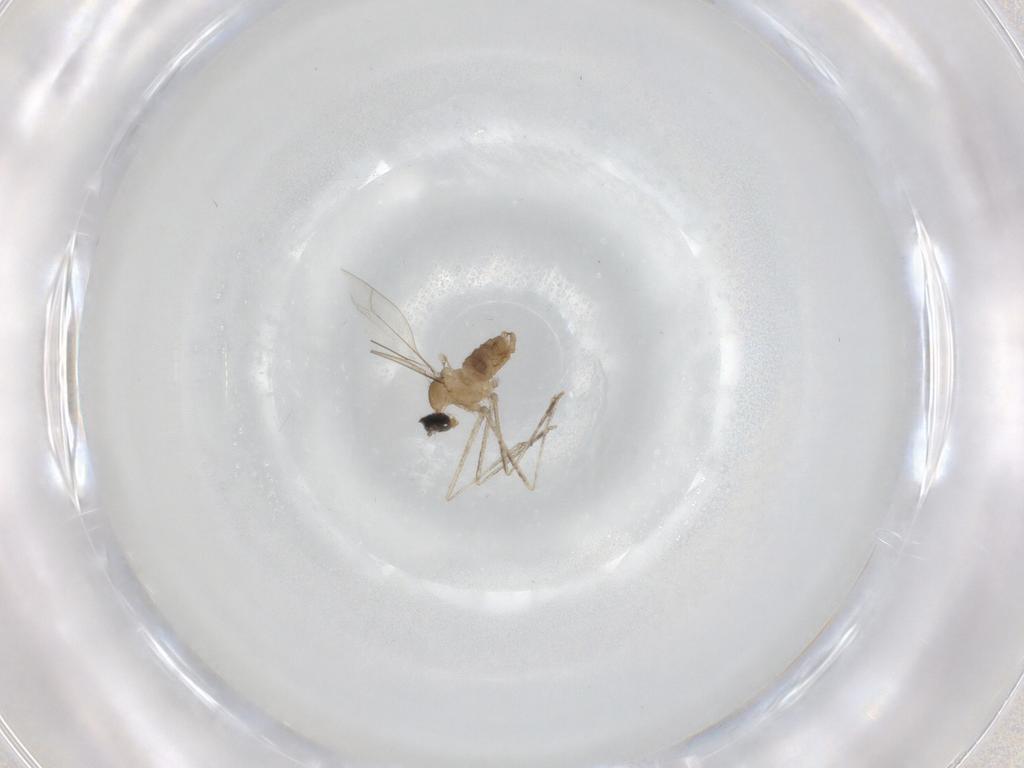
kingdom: Animalia
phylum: Arthropoda
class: Insecta
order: Diptera
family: Cecidomyiidae
